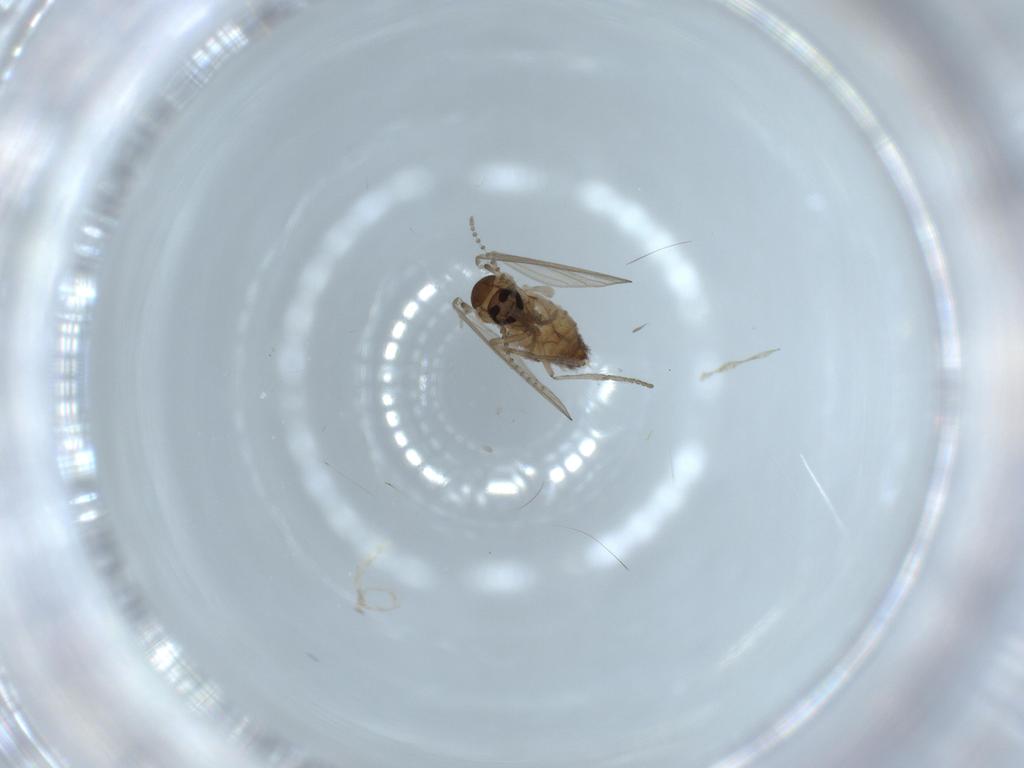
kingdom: Animalia
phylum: Arthropoda
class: Insecta
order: Diptera
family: Psychodidae
